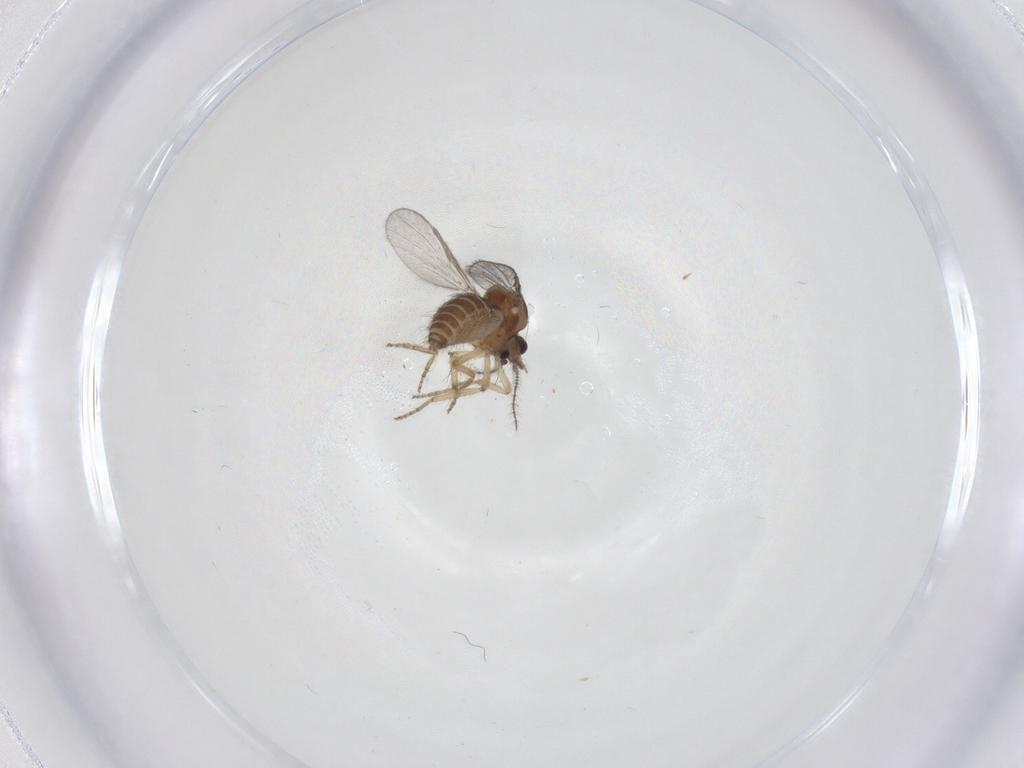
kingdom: Animalia
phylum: Arthropoda
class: Insecta
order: Diptera
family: Ceratopogonidae
